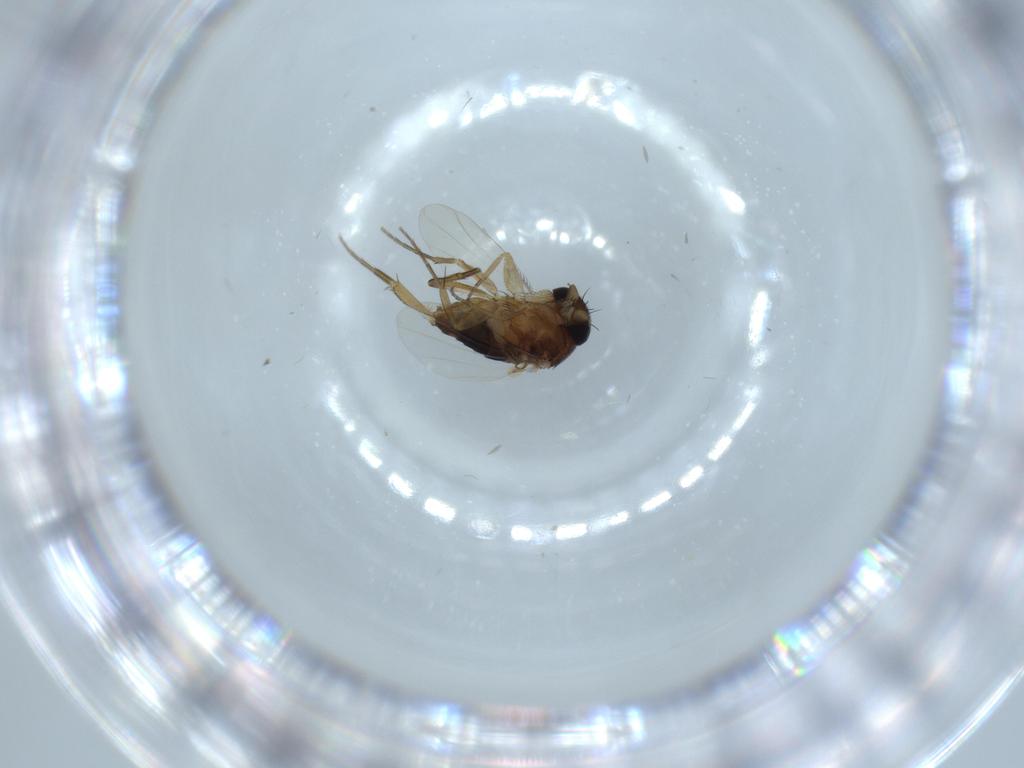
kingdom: Animalia
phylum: Arthropoda
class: Insecta
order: Diptera
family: Phoridae
